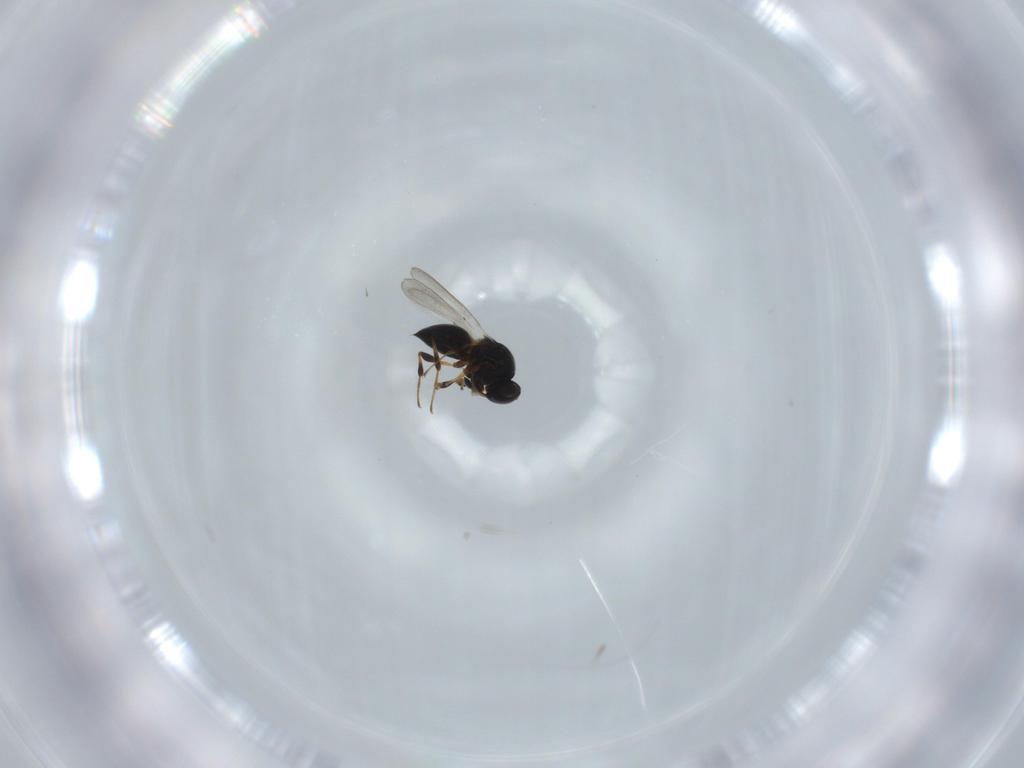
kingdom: Animalia
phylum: Arthropoda
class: Insecta
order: Hymenoptera
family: Platygastridae
